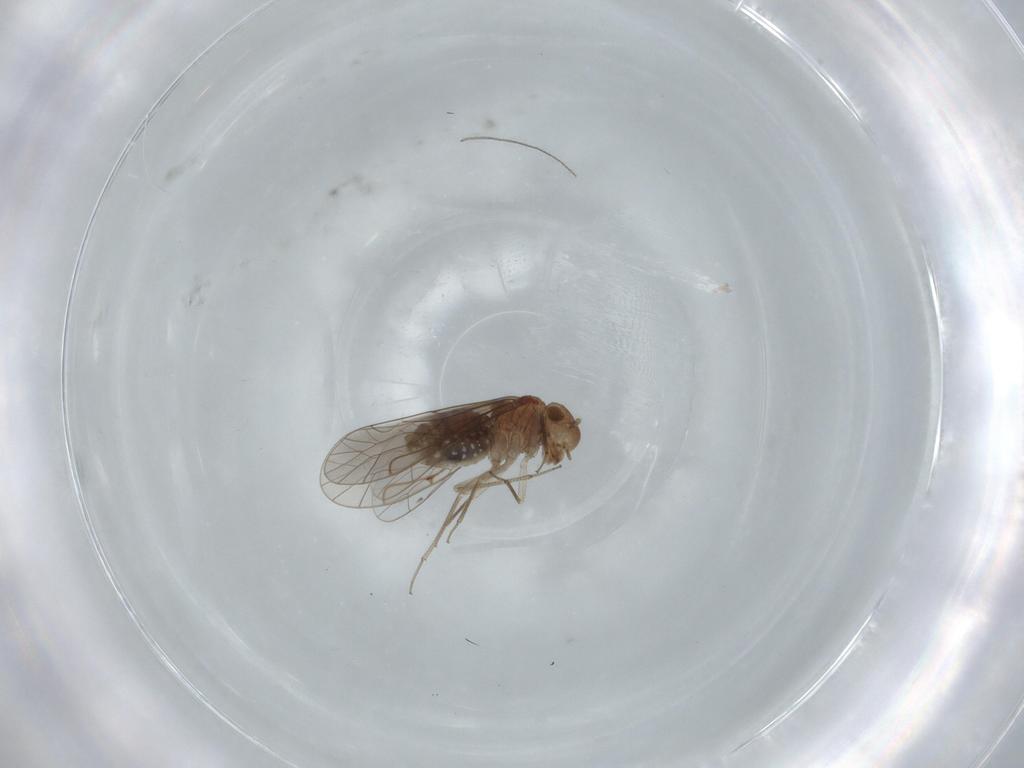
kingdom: Animalia
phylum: Arthropoda
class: Insecta
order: Psocodea
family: Lachesillidae
